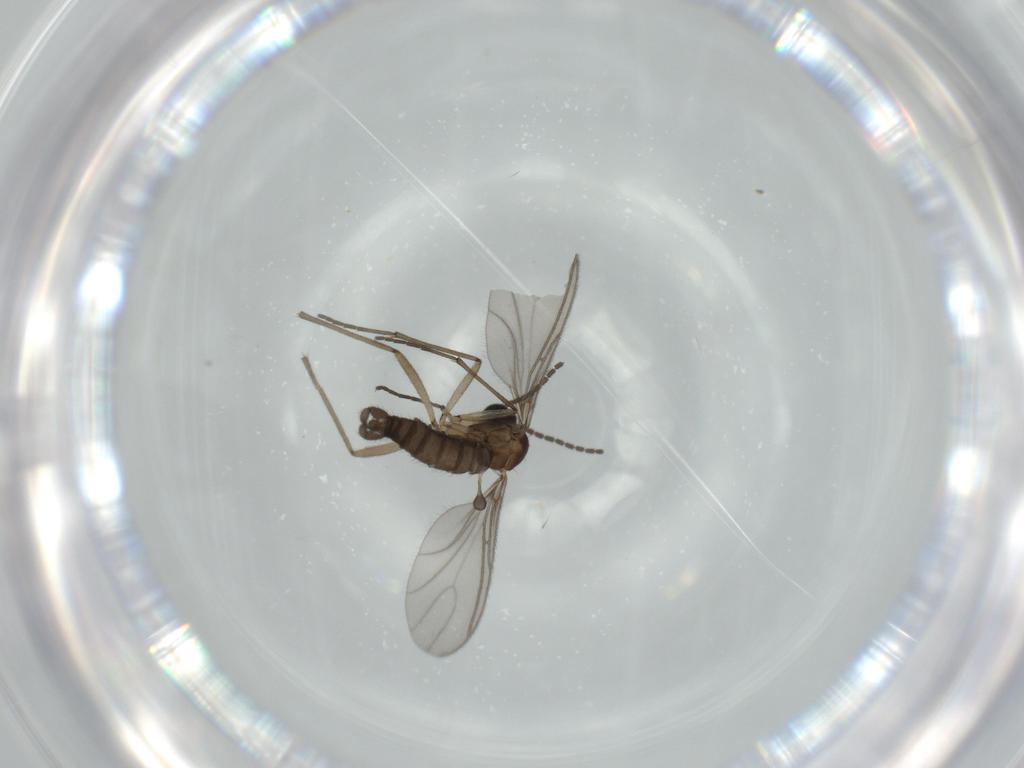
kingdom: Animalia
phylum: Arthropoda
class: Insecta
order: Diptera
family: Sciaridae
